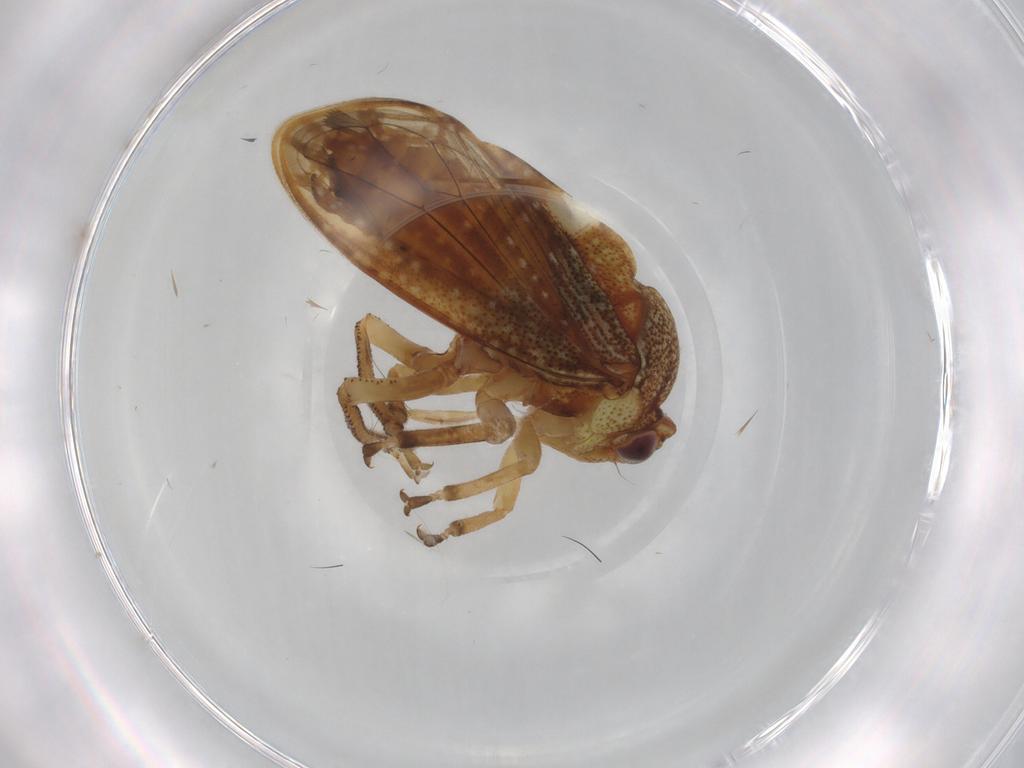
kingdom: Animalia
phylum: Arthropoda
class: Insecta
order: Hemiptera
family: Aetalionidae
